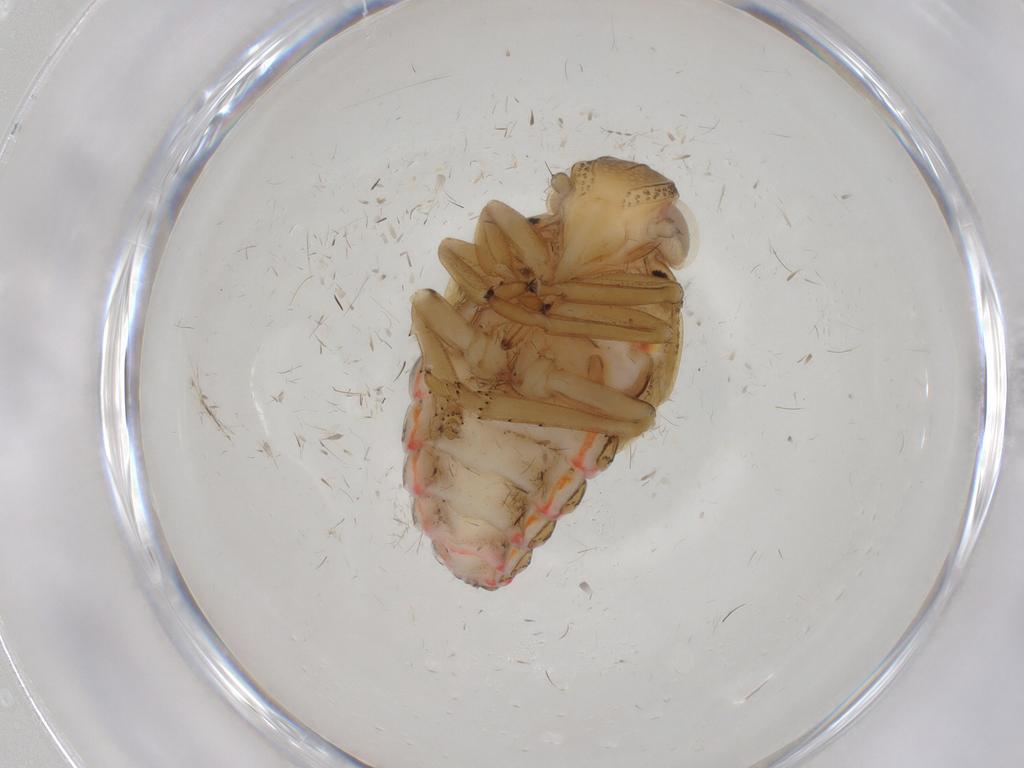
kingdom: Animalia
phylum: Arthropoda
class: Insecta
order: Hemiptera
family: Issidae
